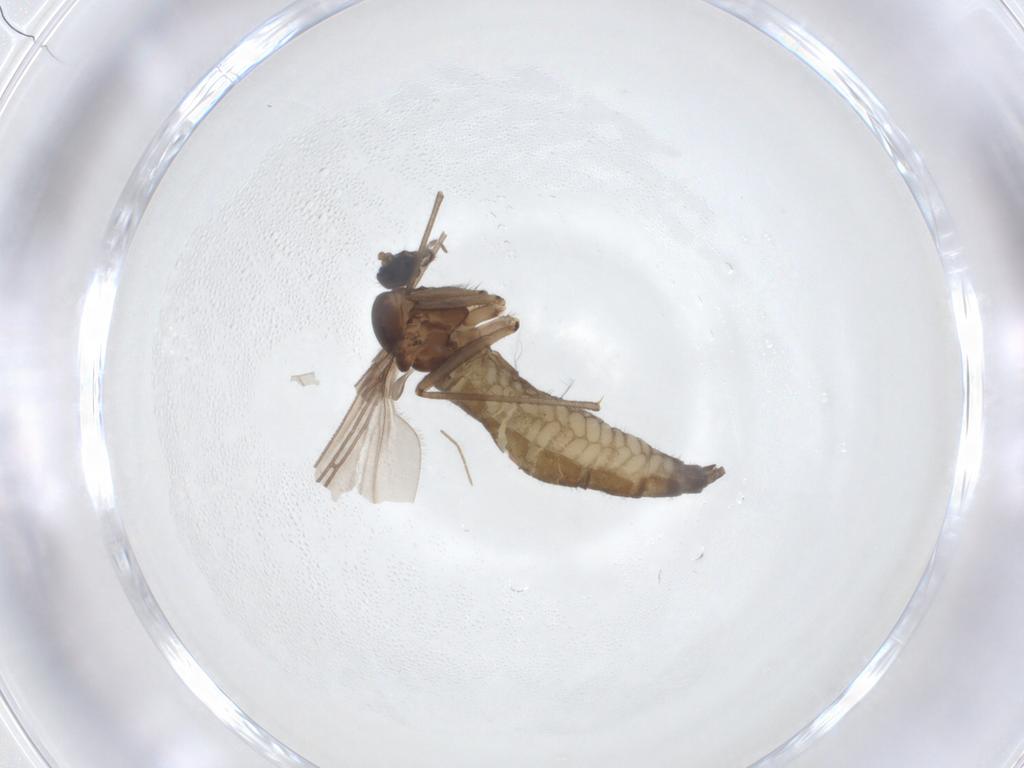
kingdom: Animalia
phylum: Arthropoda
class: Insecta
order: Diptera
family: Sciaridae
